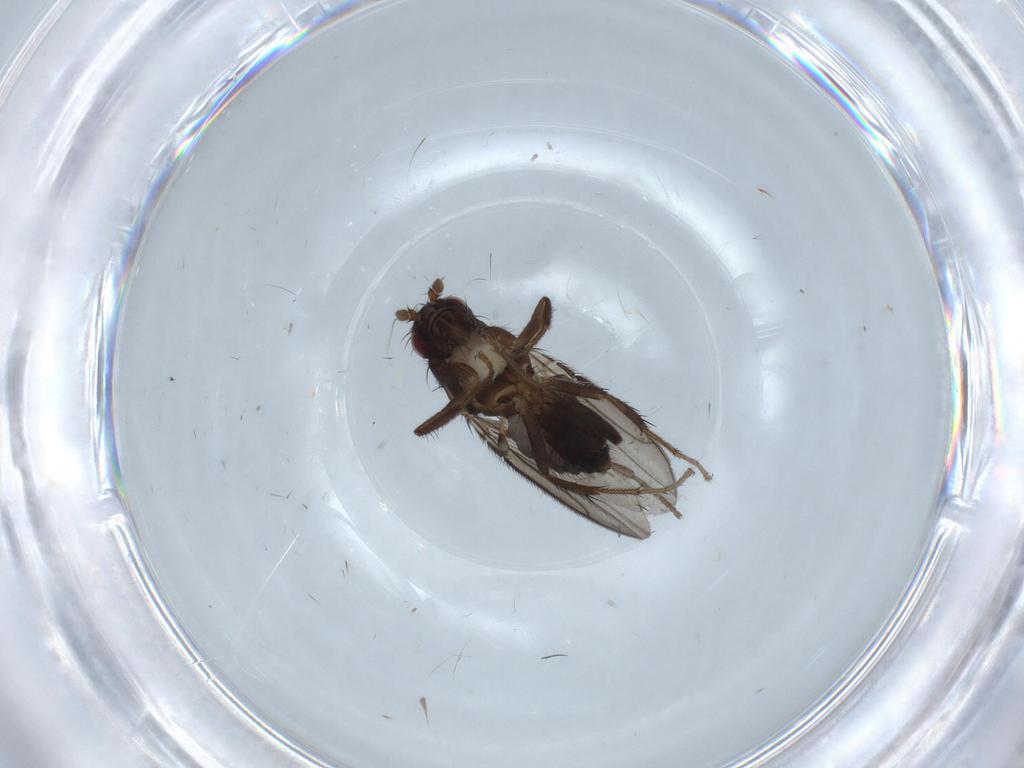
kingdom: Animalia
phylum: Arthropoda
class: Insecta
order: Diptera
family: Psychodidae
